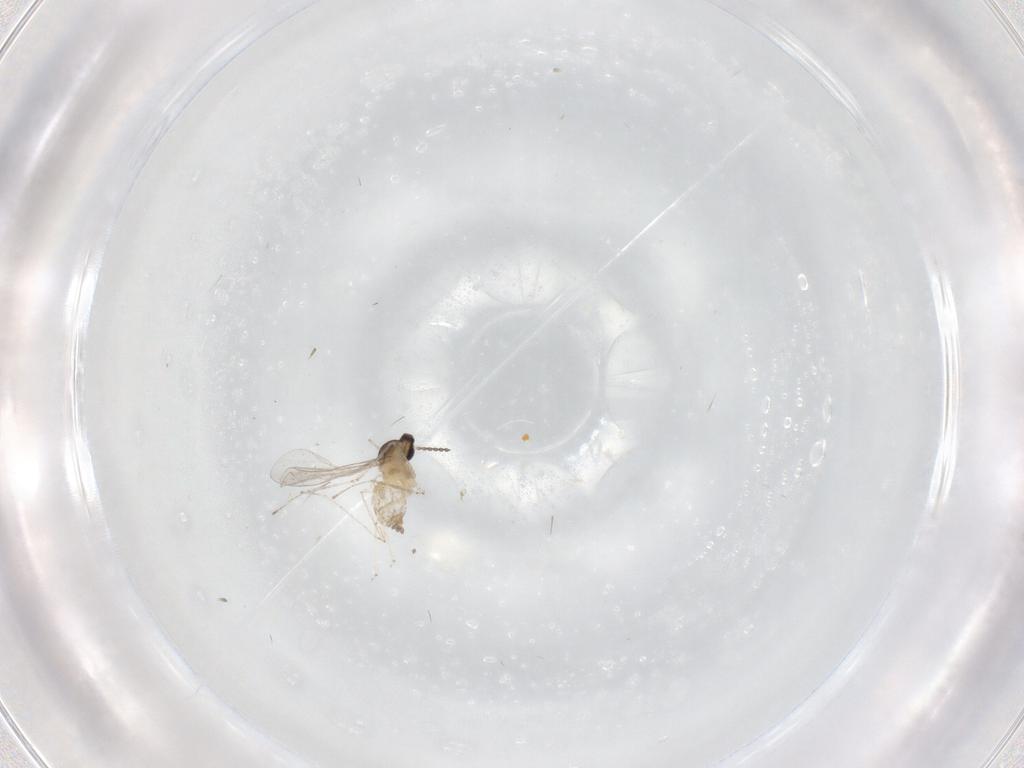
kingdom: Animalia
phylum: Arthropoda
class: Insecta
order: Diptera
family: Cecidomyiidae
